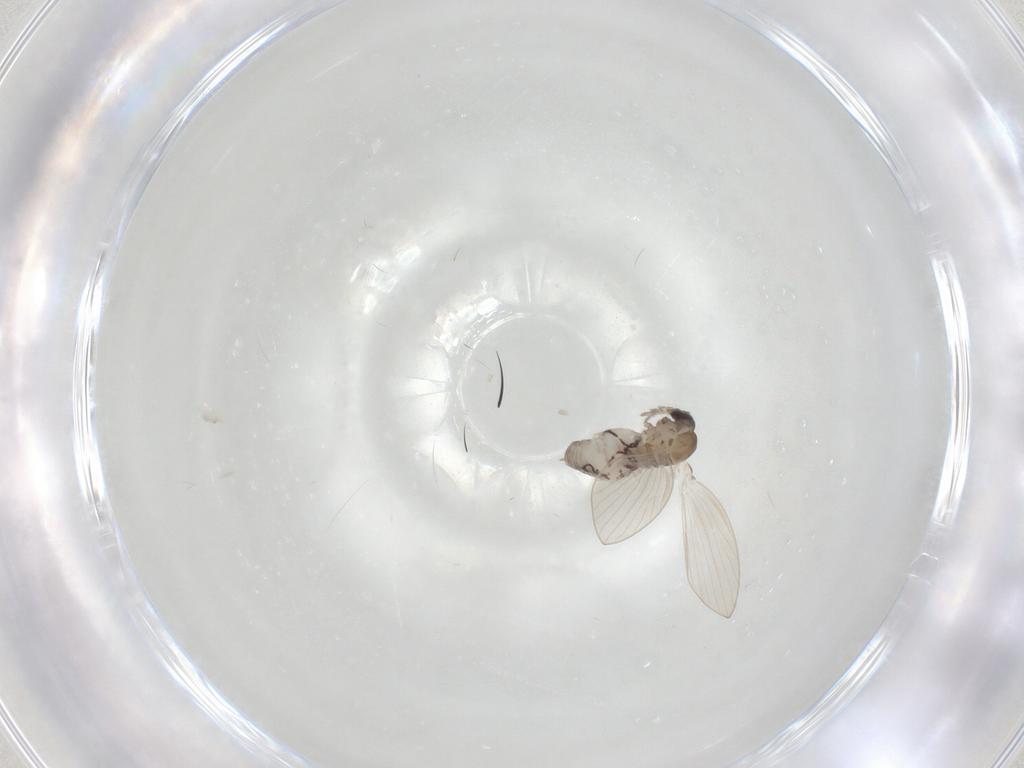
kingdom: Animalia
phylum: Arthropoda
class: Insecta
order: Diptera
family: Psychodidae
